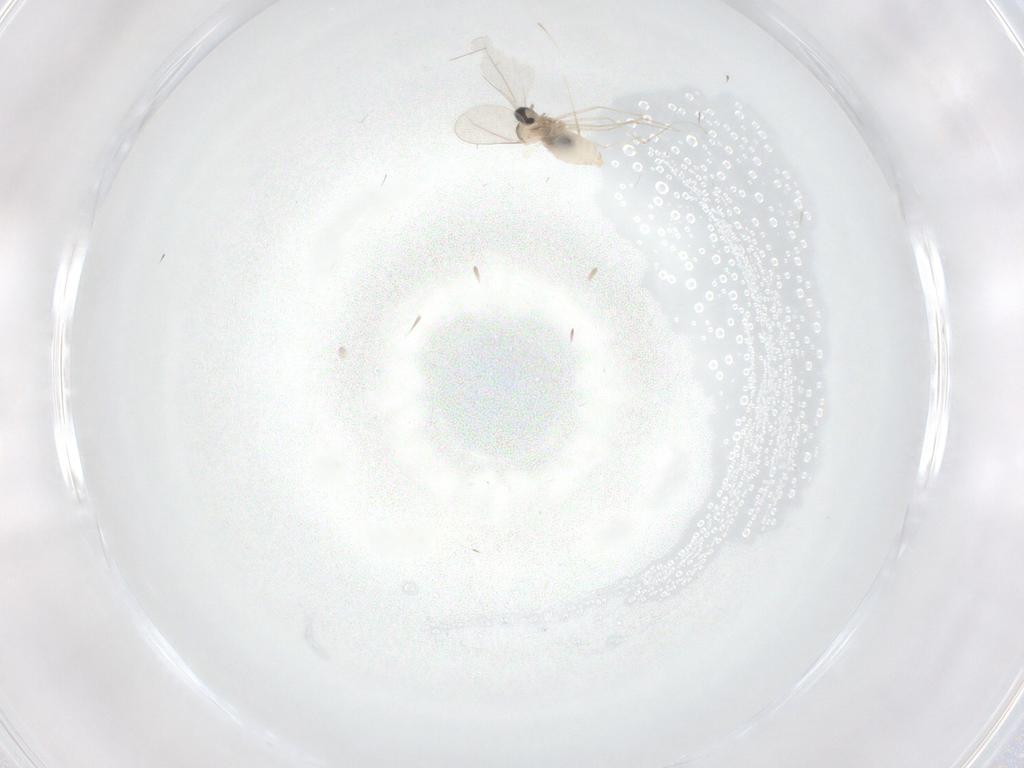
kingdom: Animalia
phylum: Arthropoda
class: Insecta
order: Diptera
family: Cecidomyiidae
